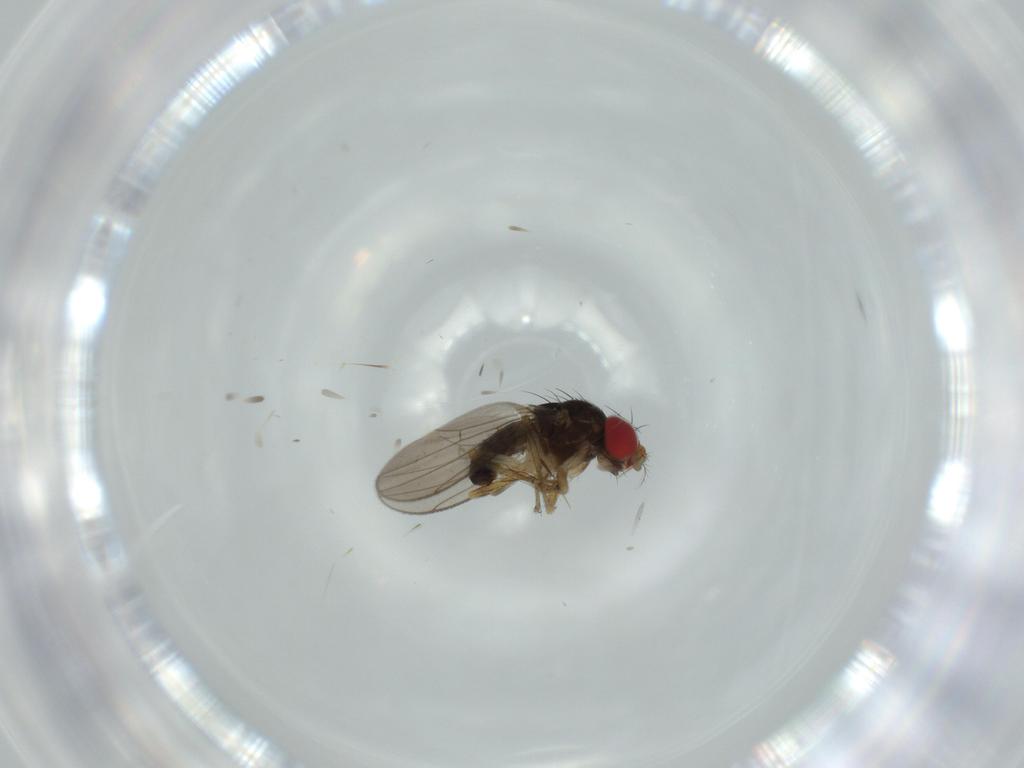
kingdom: Animalia
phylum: Arthropoda
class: Insecta
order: Diptera
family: Drosophilidae
